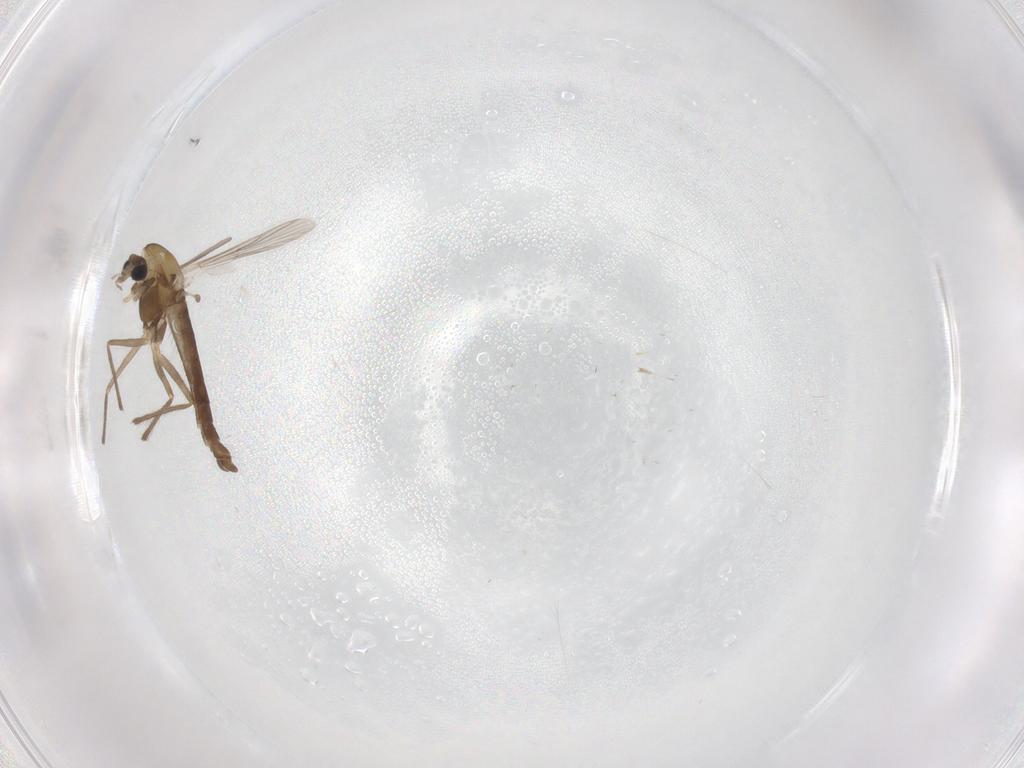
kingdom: Animalia
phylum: Arthropoda
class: Insecta
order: Diptera
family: Chironomidae
